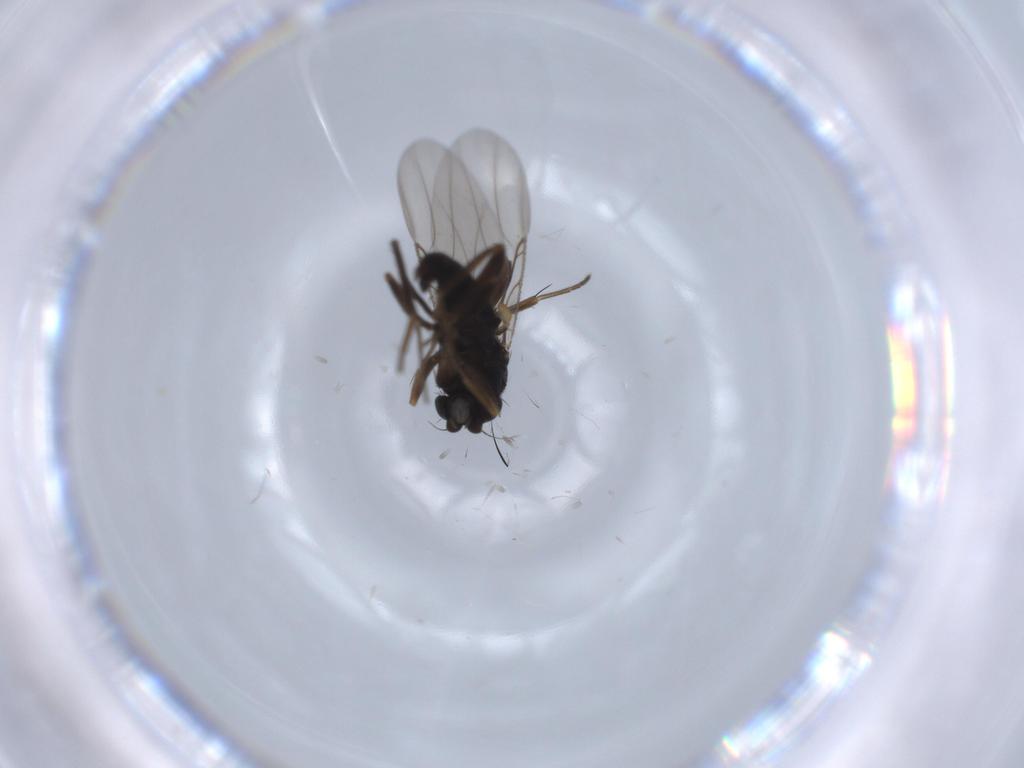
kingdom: Animalia
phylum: Arthropoda
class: Insecta
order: Diptera
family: Phoridae
